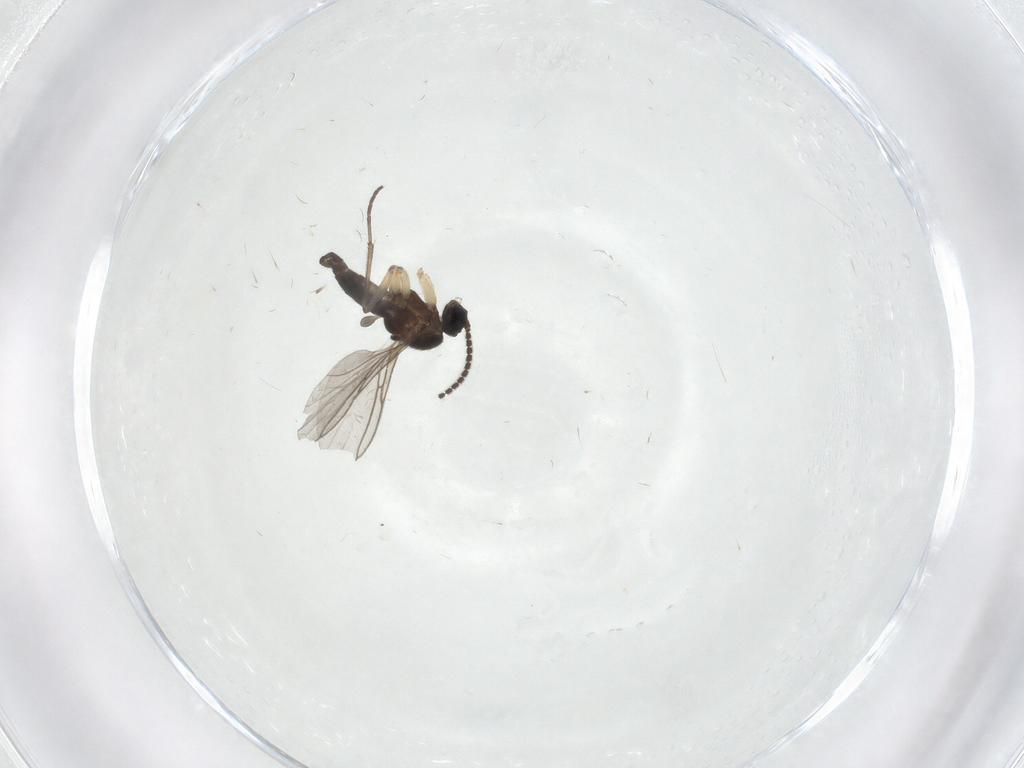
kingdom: Animalia
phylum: Arthropoda
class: Insecta
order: Diptera
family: Sciaridae
